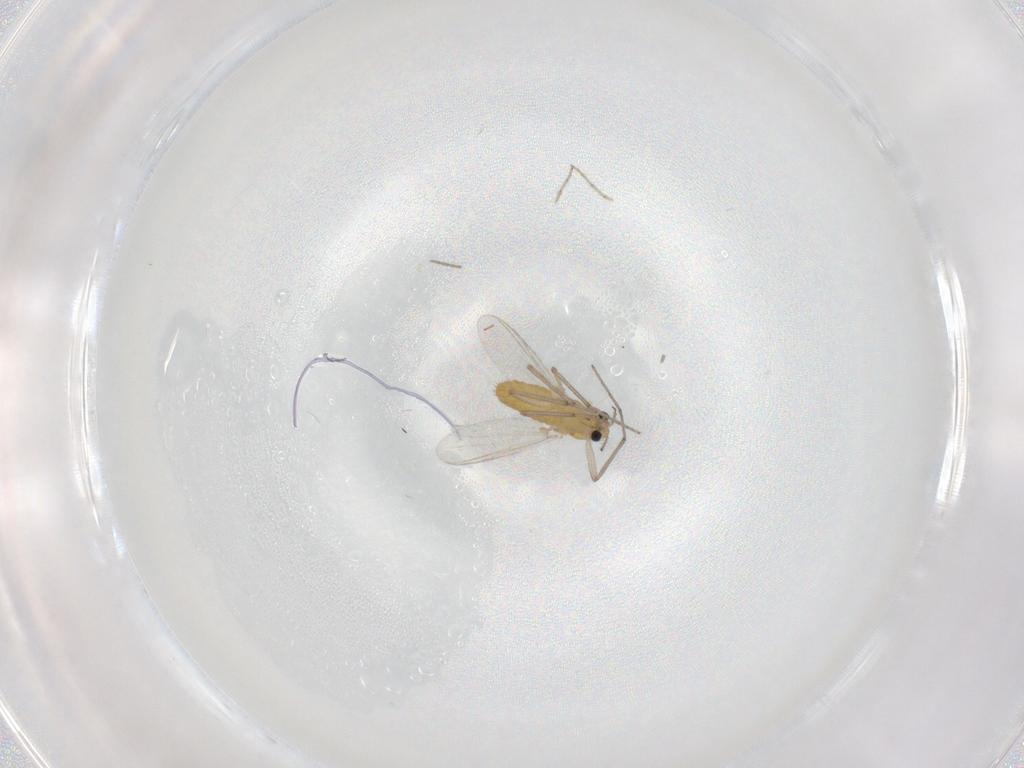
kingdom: Animalia
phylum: Arthropoda
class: Insecta
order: Diptera
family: Chironomidae
